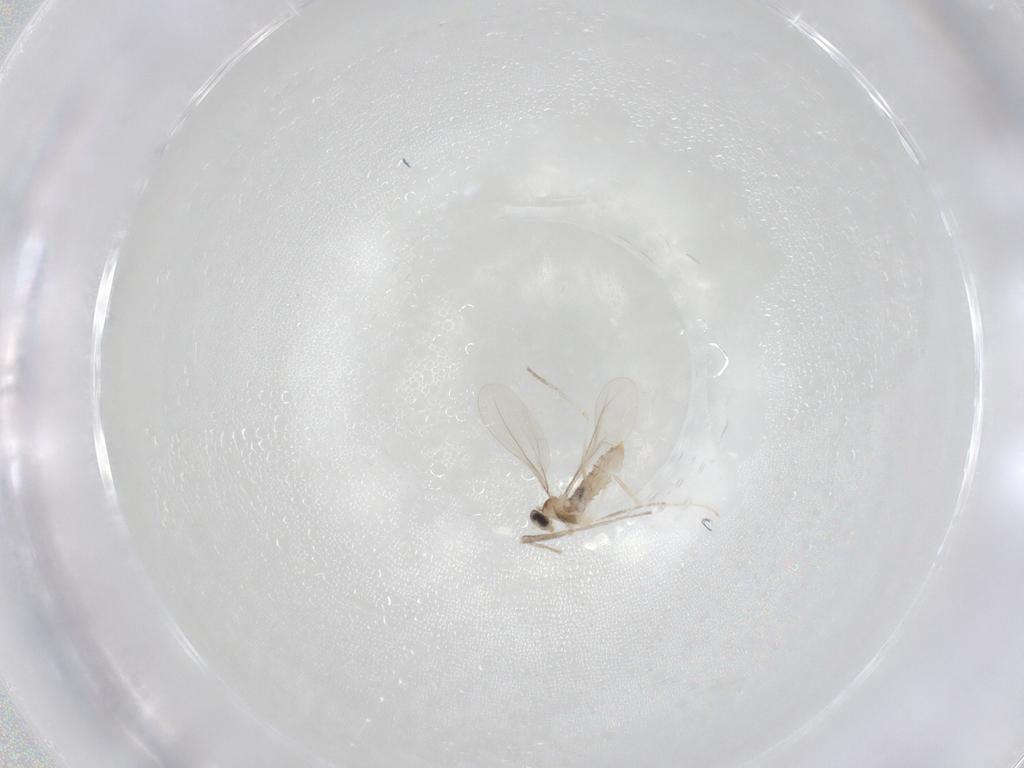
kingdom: Animalia
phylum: Arthropoda
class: Insecta
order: Diptera
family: Cecidomyiidae
